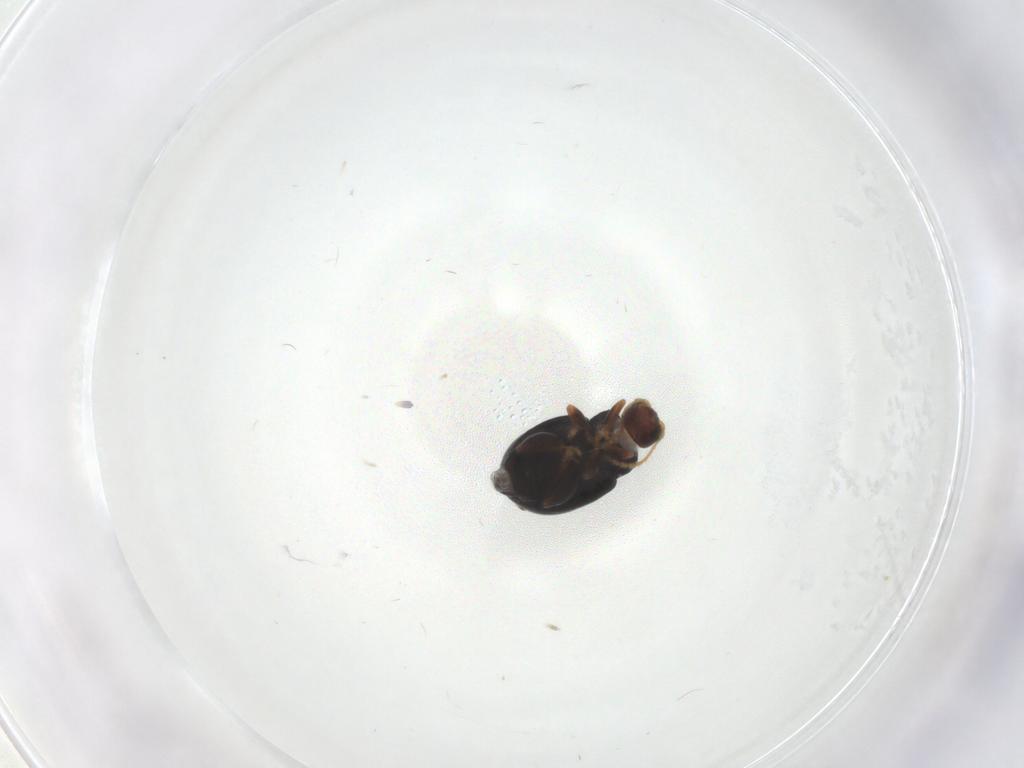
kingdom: Animalia
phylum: Arthropoda
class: Insecta
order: Coleoptera
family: Chrysomelidae
